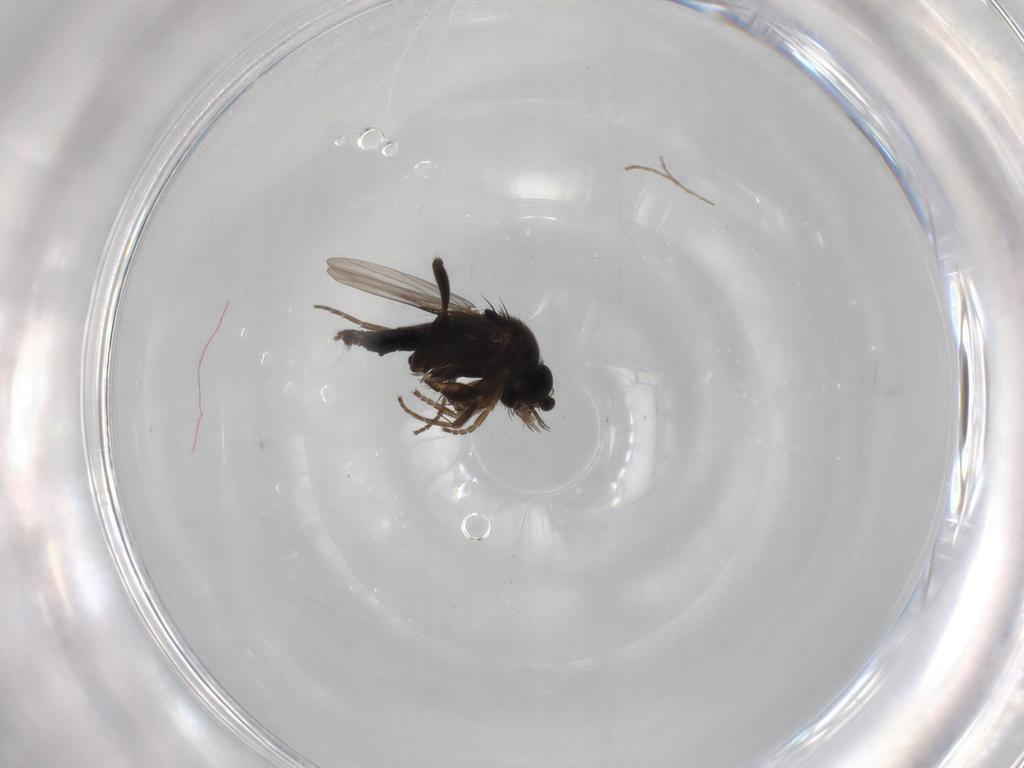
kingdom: Animalia
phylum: Arthropoda
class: Insecta
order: Diptera
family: Phoridae
